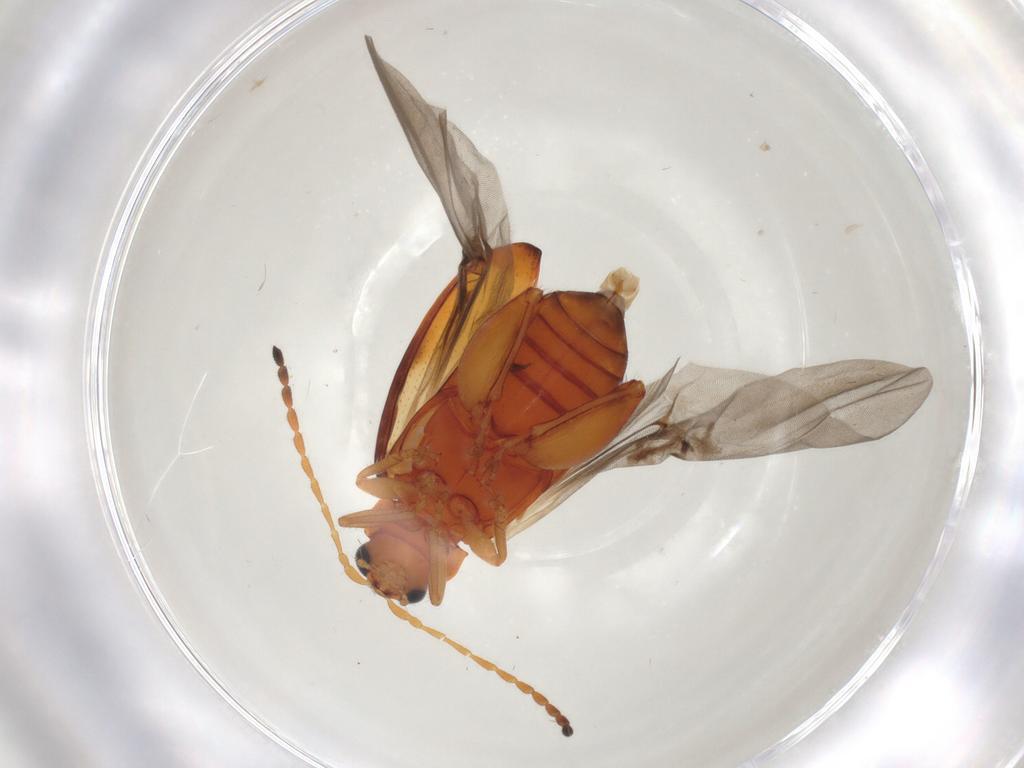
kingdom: Animalia
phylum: Arthropoda
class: Insecta
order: Coleoptera
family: Chrysomelidae
